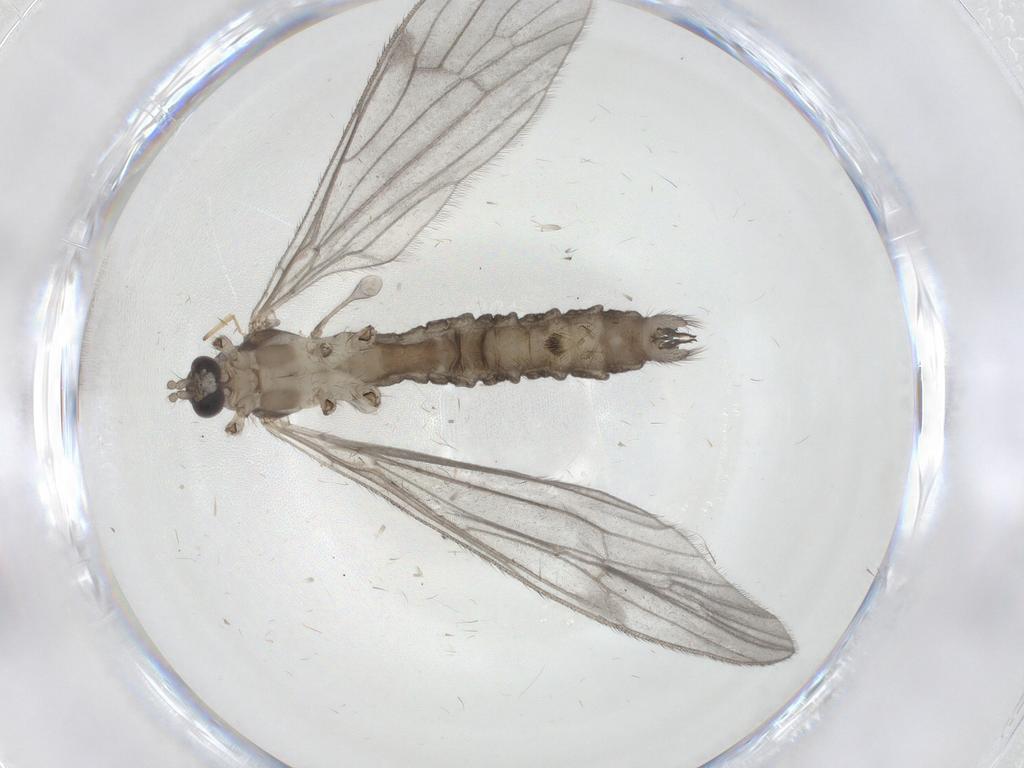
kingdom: Animalia
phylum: Arthropoda
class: Insecta
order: Diptera
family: Limoniidae
